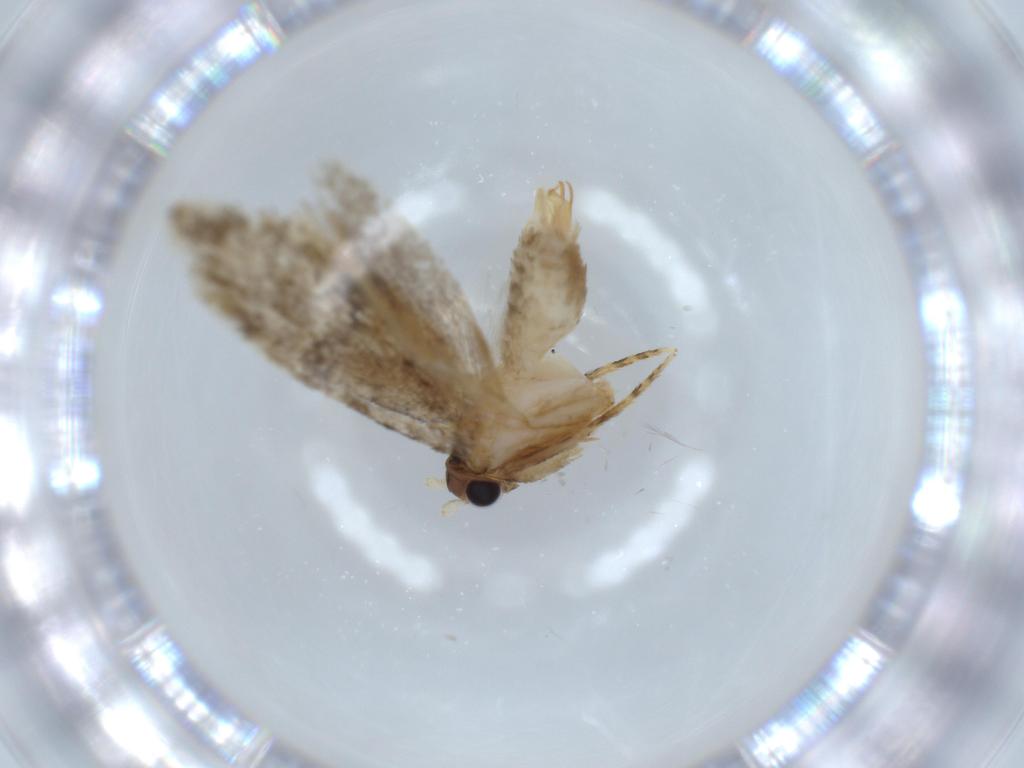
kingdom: Animalia
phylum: Arthropoda
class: Insecta
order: Lepidoptera
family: Tineidae
